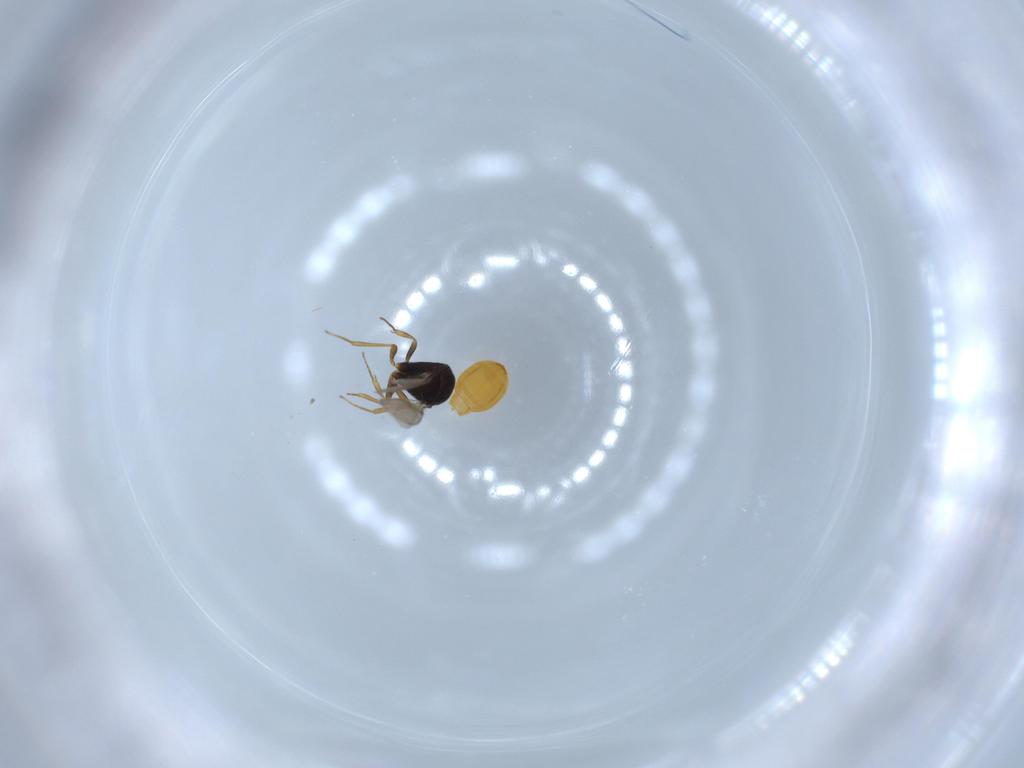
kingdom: Animalia
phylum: Arthropoda
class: Insecta
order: Hymenoptera
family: Scelionidae
